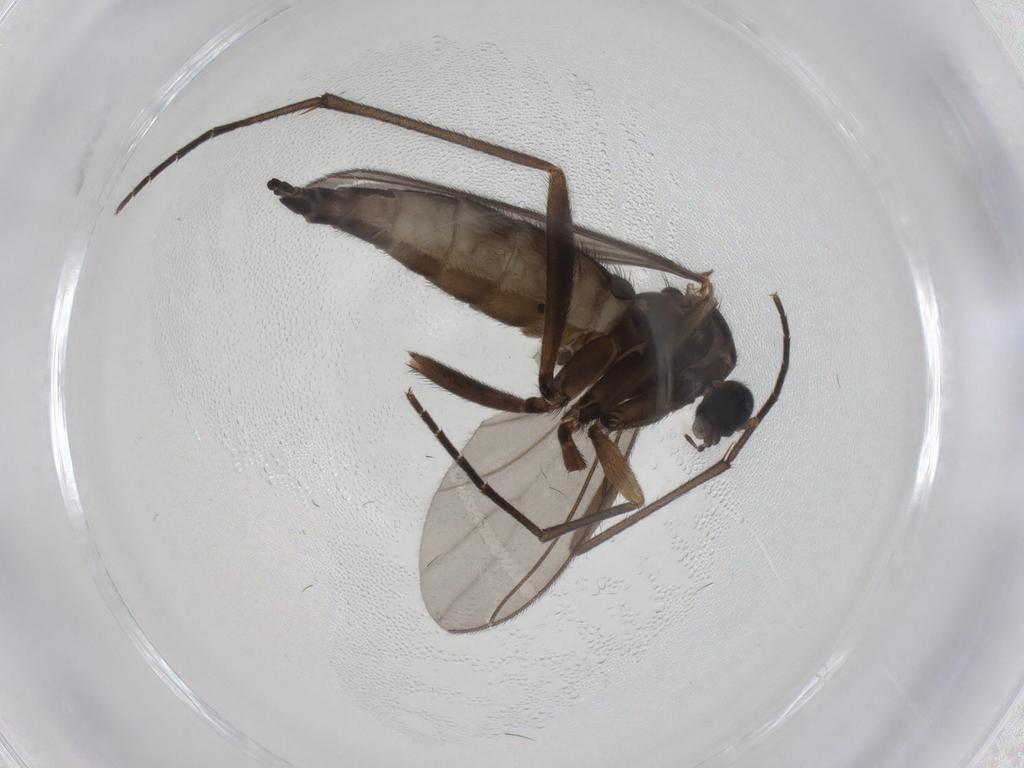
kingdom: Animalia
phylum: Arthropoda
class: Insecta
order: Diptera
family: Sciaridae
